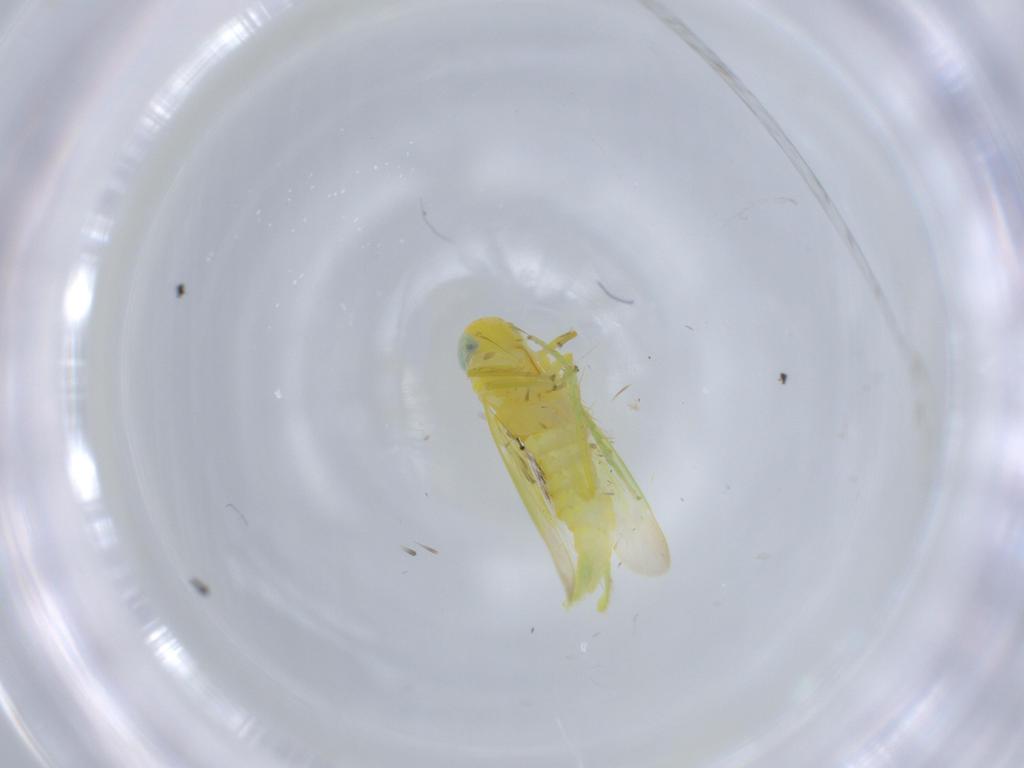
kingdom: Animalia
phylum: Arthropoda
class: Insecta
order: Hemiptera
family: Cicadellidae
